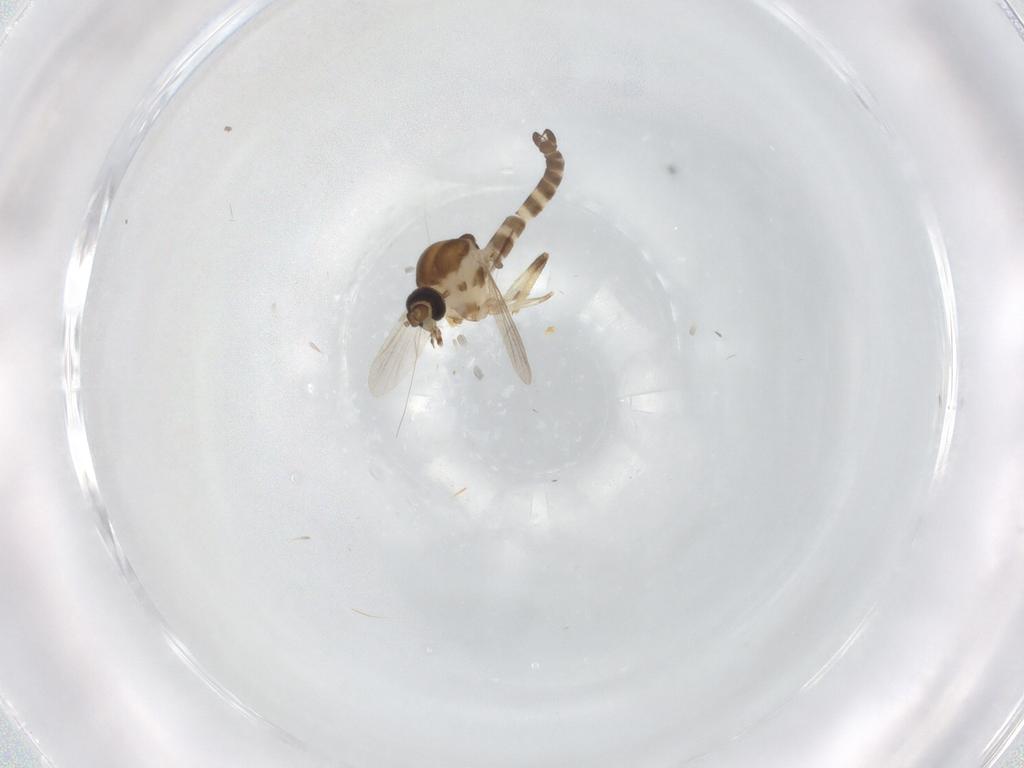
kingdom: Animalia
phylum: Arthropoda
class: Insecta
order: Diptera
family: Ceratopogonidae
